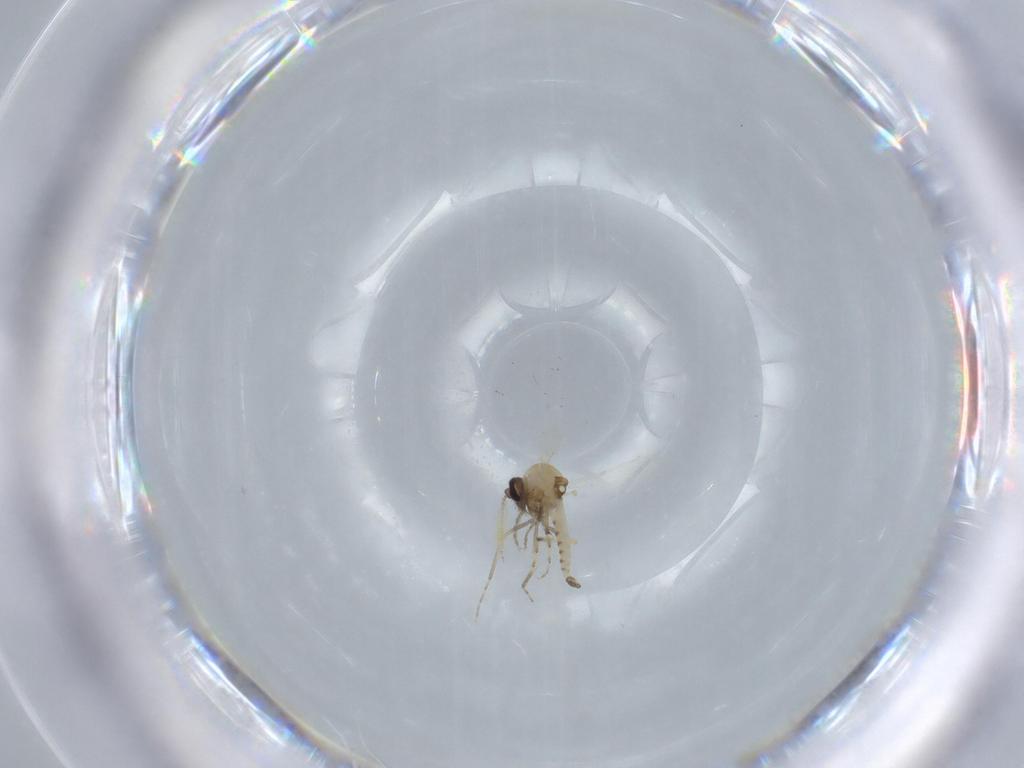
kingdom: Animalia
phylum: Arthropoda
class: Insecta
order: Diptera
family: Ceratopogonidae
